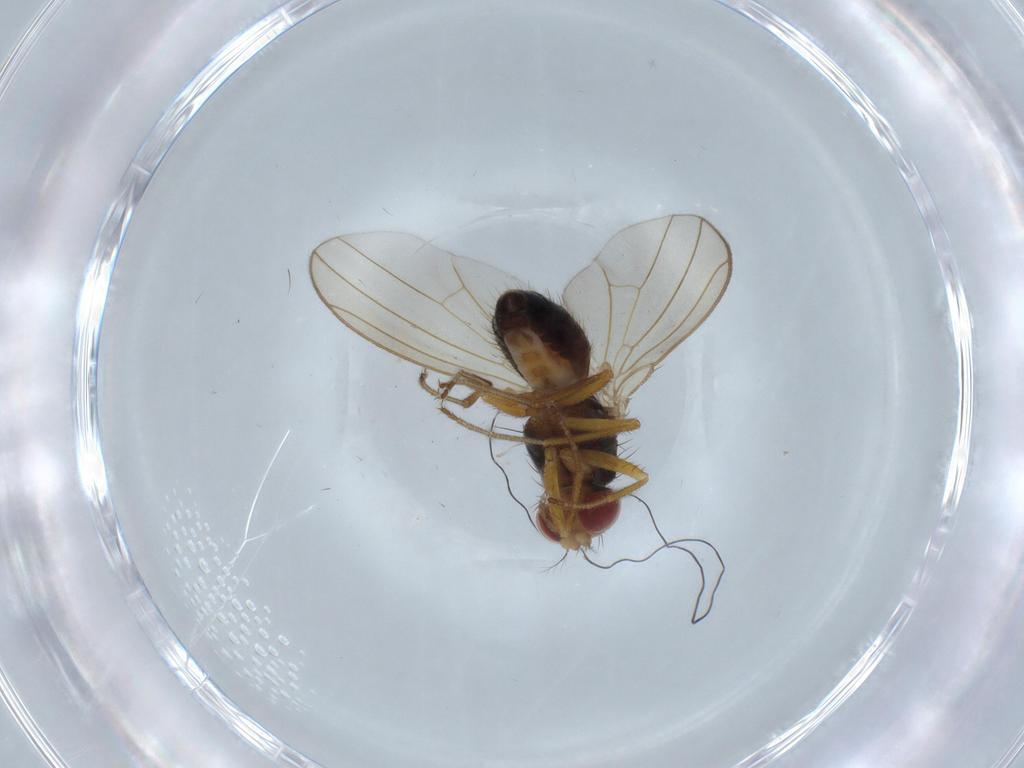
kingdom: Animalia
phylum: Arthropoda
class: Insecta
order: Diptera
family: Drosophilidae
